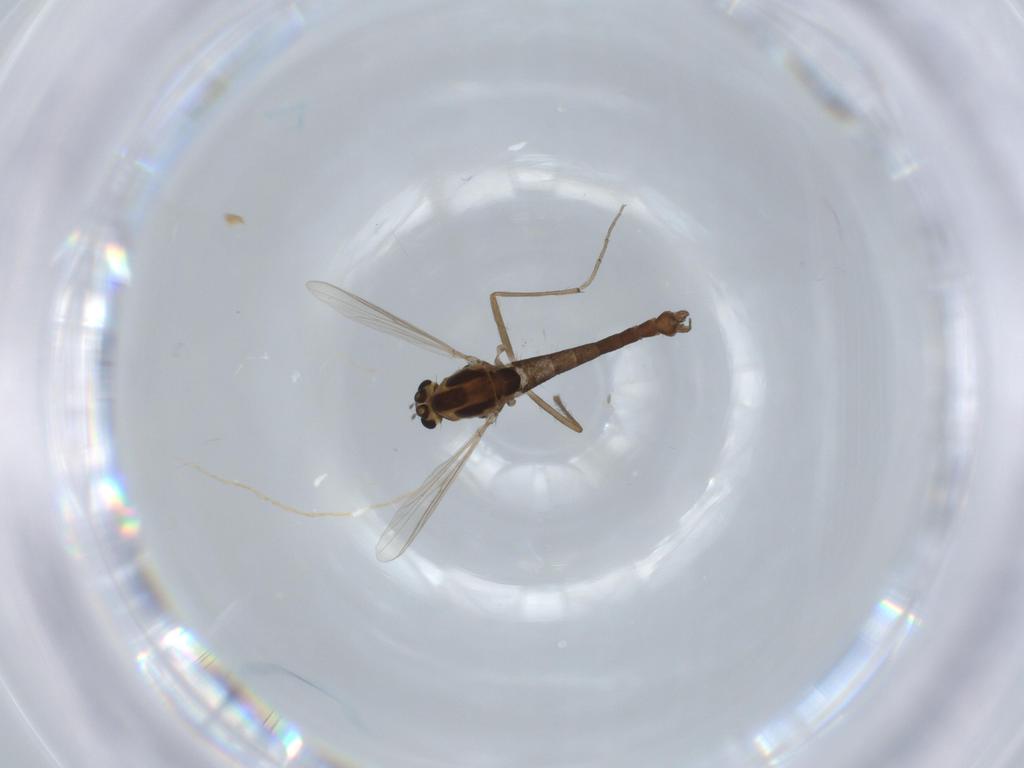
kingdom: Animalia
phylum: Arthropoda
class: Insecta
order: Diptera
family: Chironomidae
